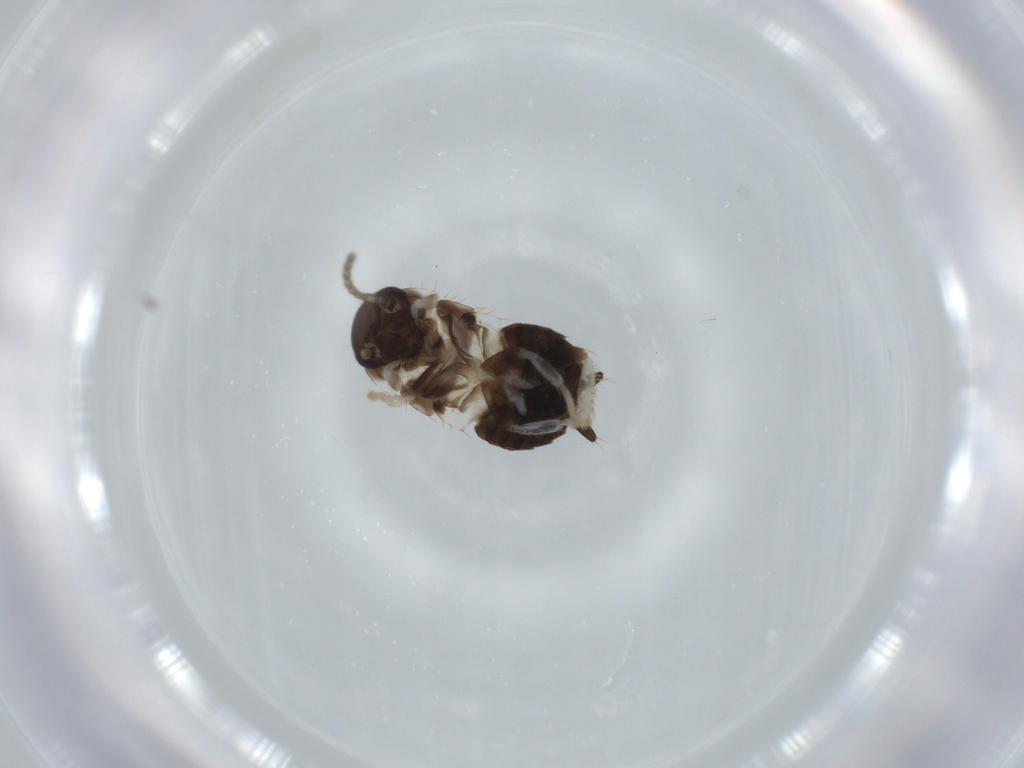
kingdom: Animalia
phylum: Arthropoda
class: Insecta
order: Blattodea
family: Ectobiidae
